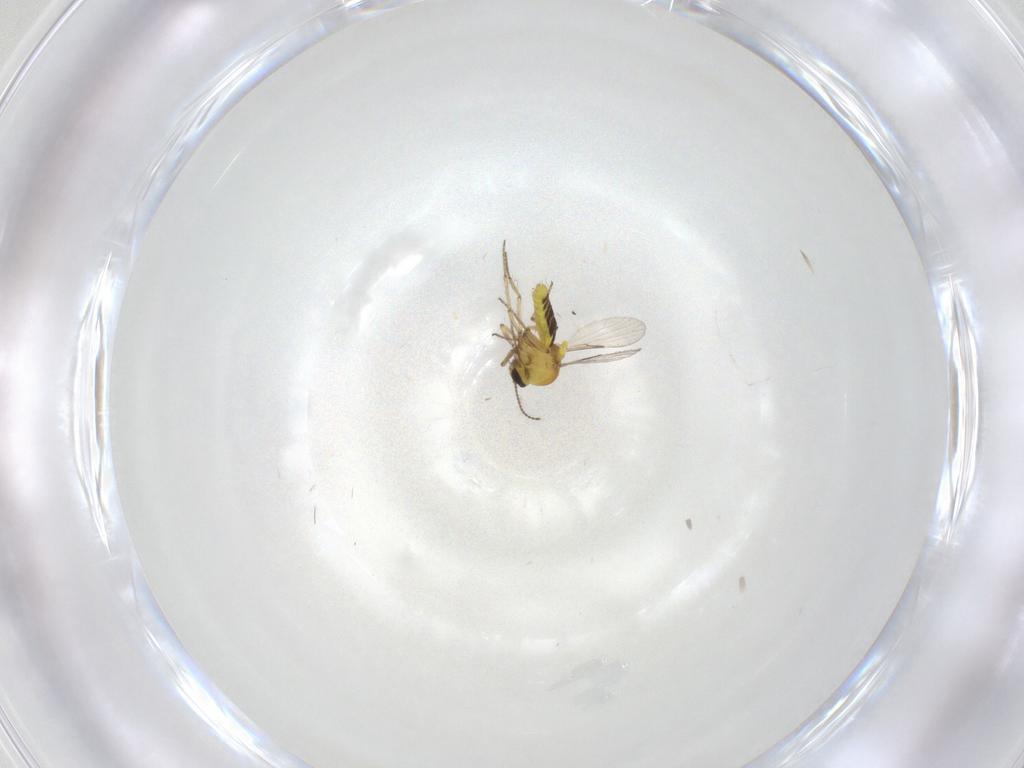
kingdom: Animalia
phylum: Arthropoda
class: Insecta
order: Diptera
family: Cecidomyiidae
